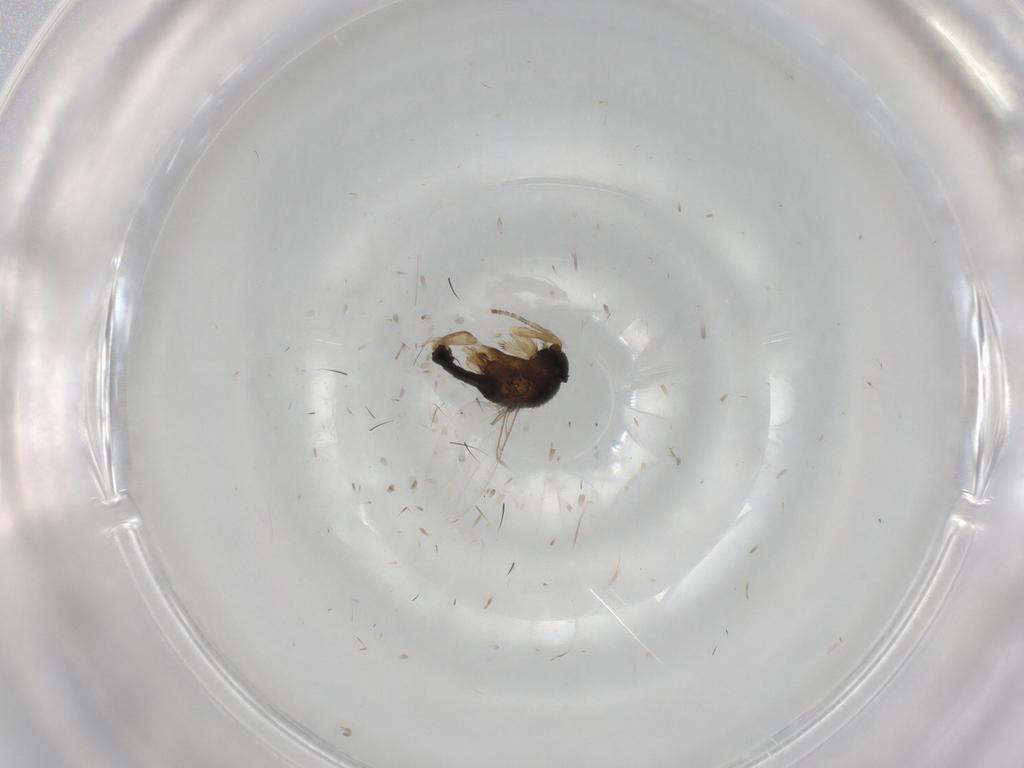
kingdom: Animalia
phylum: Arthropoda
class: Insecta
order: Diptera
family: Phoridae
